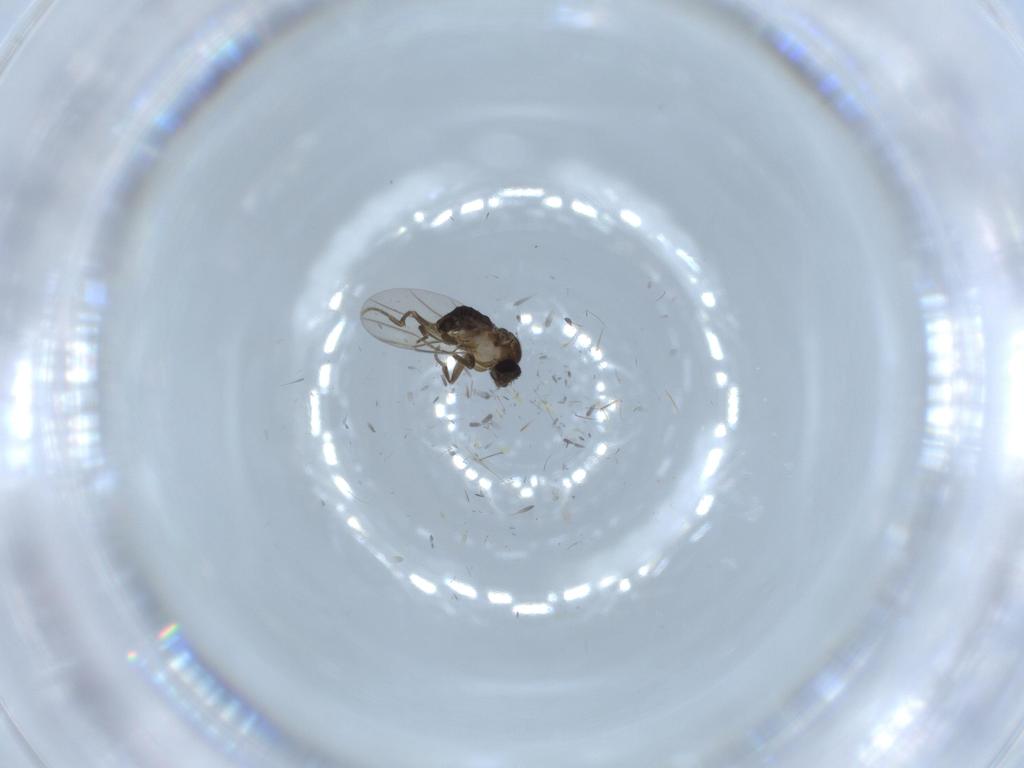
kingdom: Animalia
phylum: Arthropoda
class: Insecta
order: Diptera
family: Phoridae
